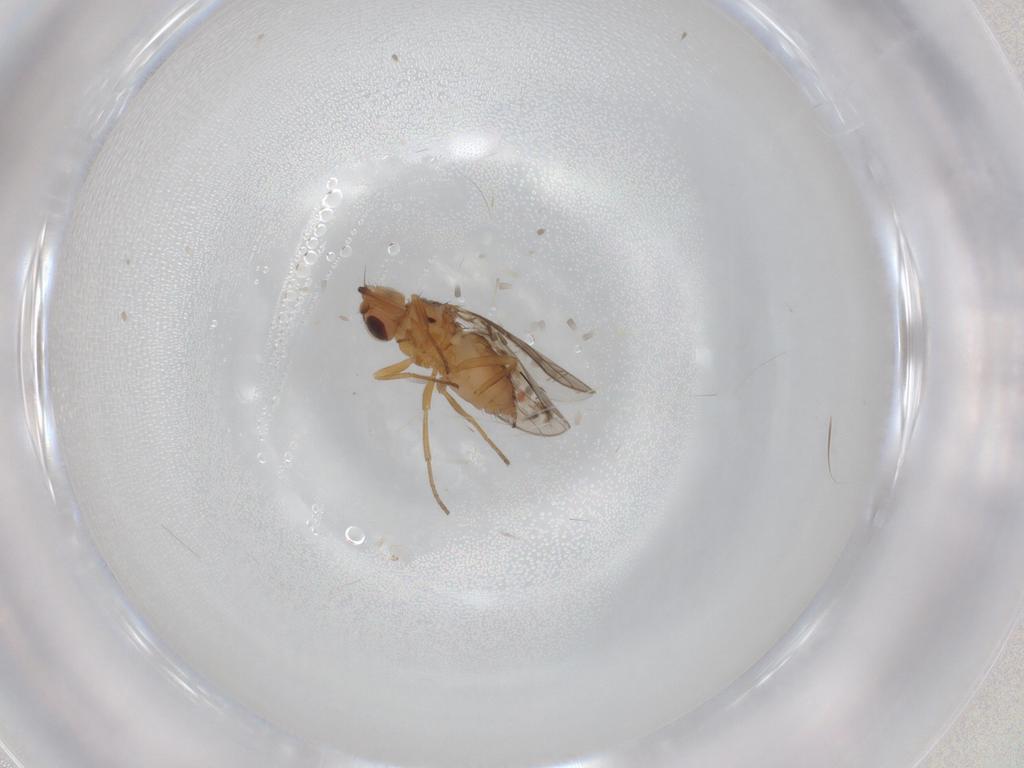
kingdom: Animalia
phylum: Arthropoda
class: Insecta
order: Diptera
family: Chloropidae
